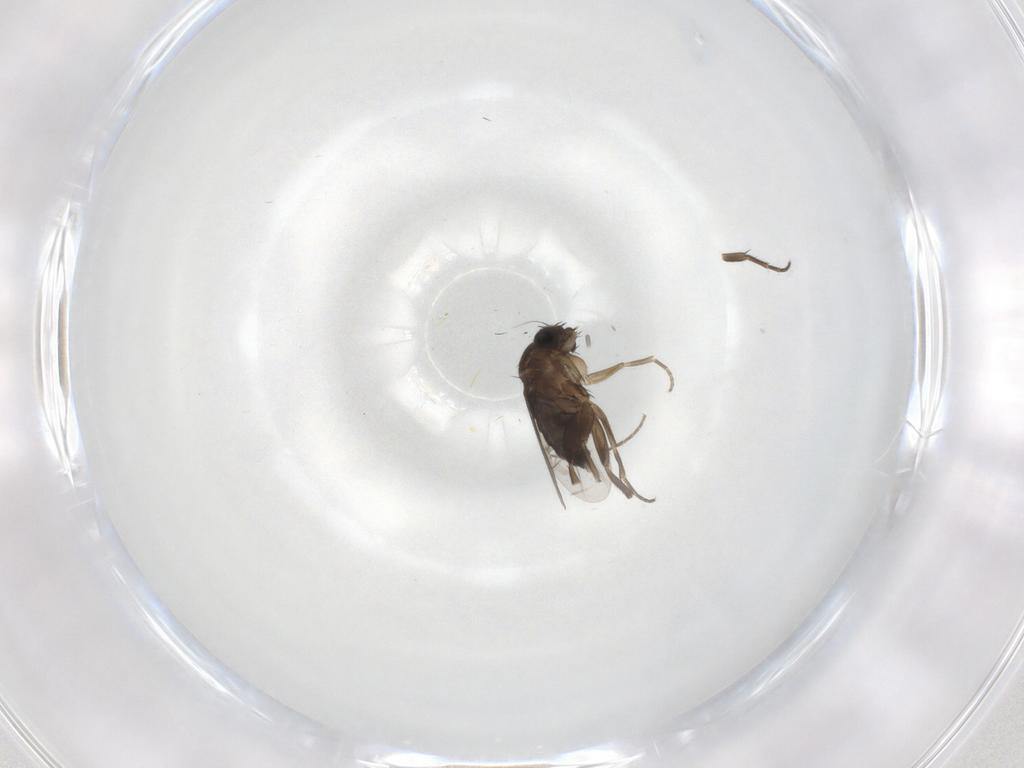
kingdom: Animalia
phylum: Arthropoda
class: Insecta
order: Diptera
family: Phoridae
